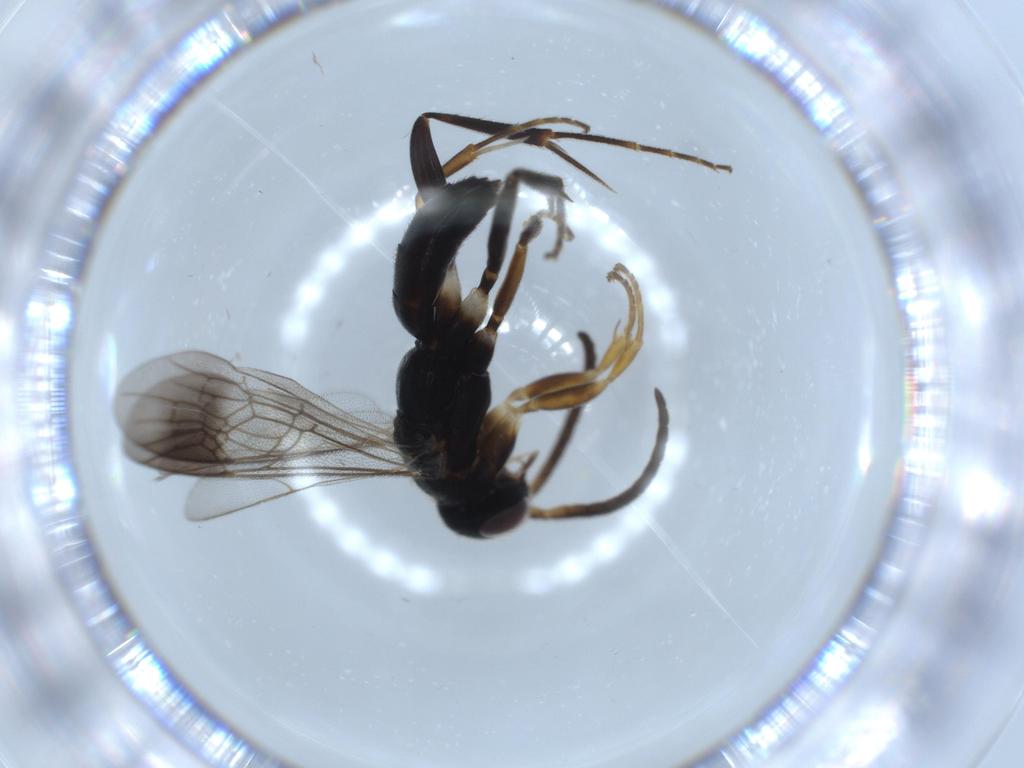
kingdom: Animalia
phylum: Arthropoda
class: Insecta
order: Hymenoptera
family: Pompilidae
